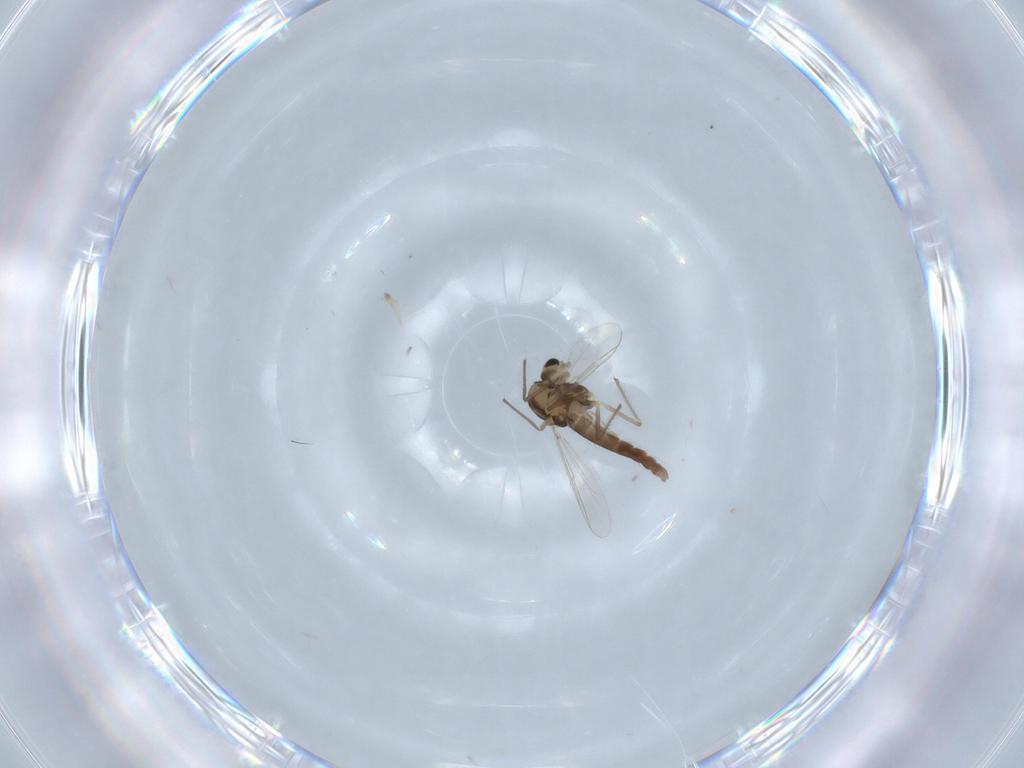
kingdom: Animalia
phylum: Arthropoda
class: Insecta
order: Diptera
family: Chironomidae
